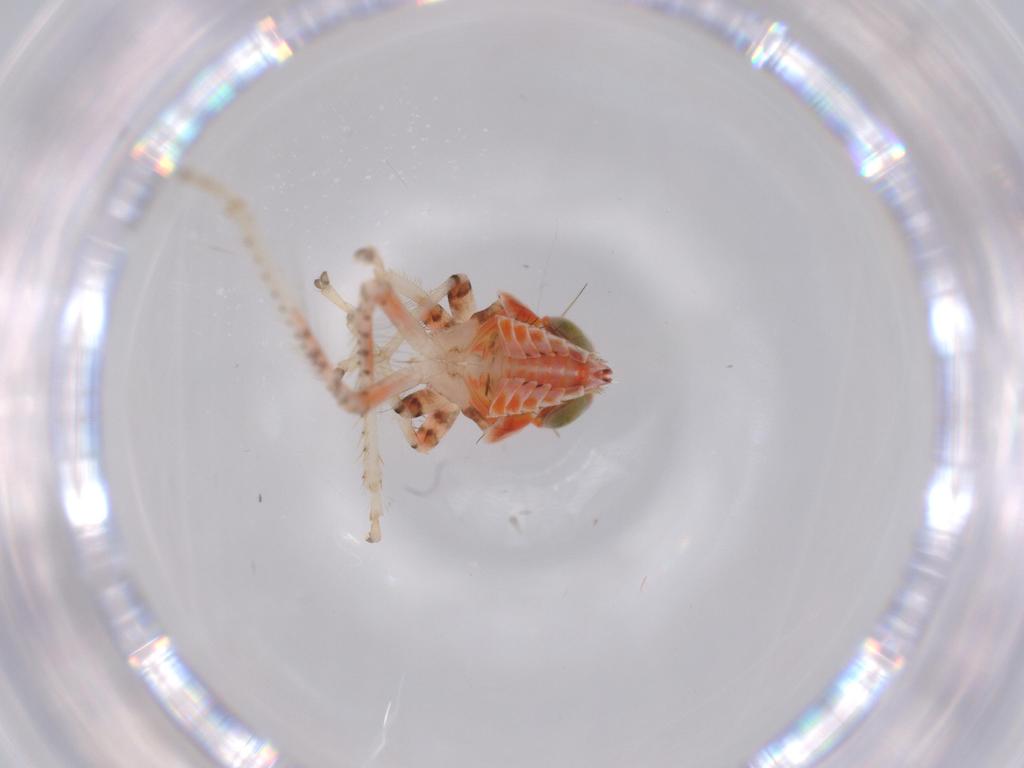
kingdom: Animalia
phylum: Arthropoda
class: Insecta
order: Hemiptera
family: Cicadellidae
